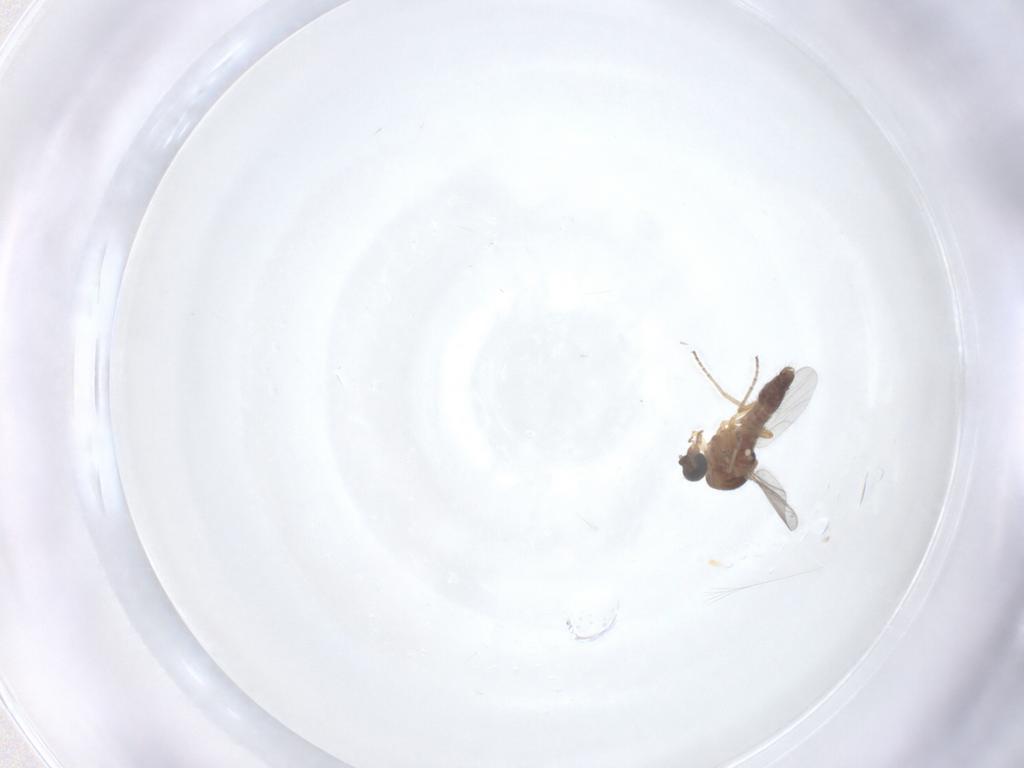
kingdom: Animalia
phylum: Arthropoda
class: Insecta
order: Diptera
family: Ceratopogonidae
